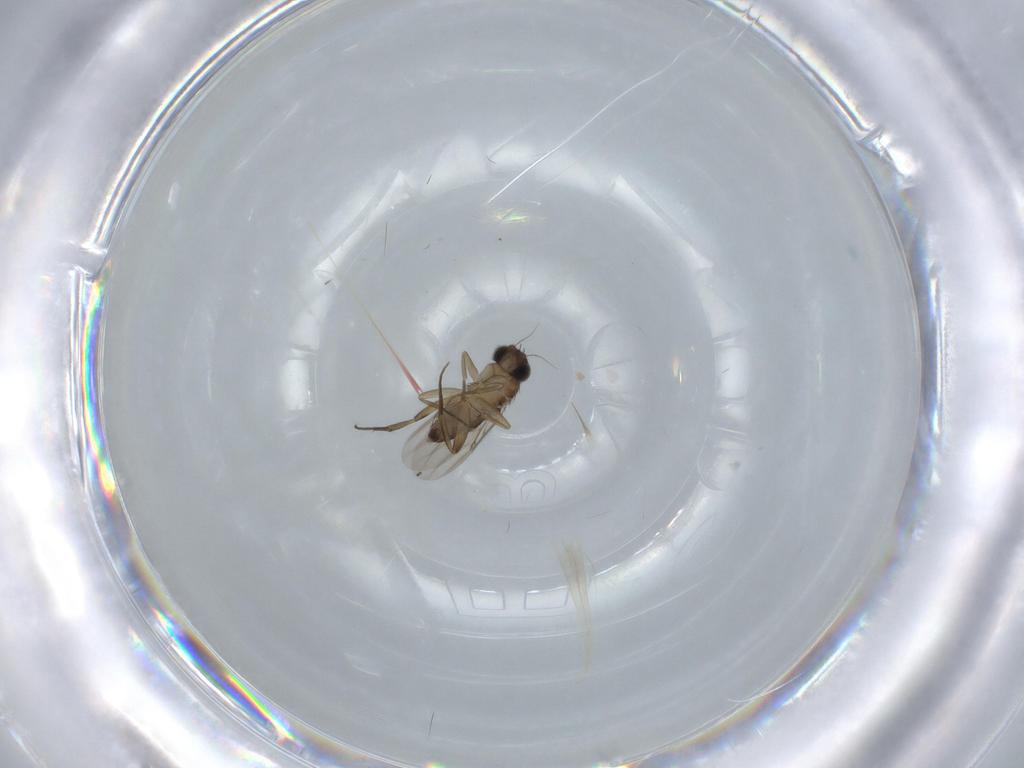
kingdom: Animalia
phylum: Arthropoda
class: Insecta
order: Diptera
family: Phoridae
